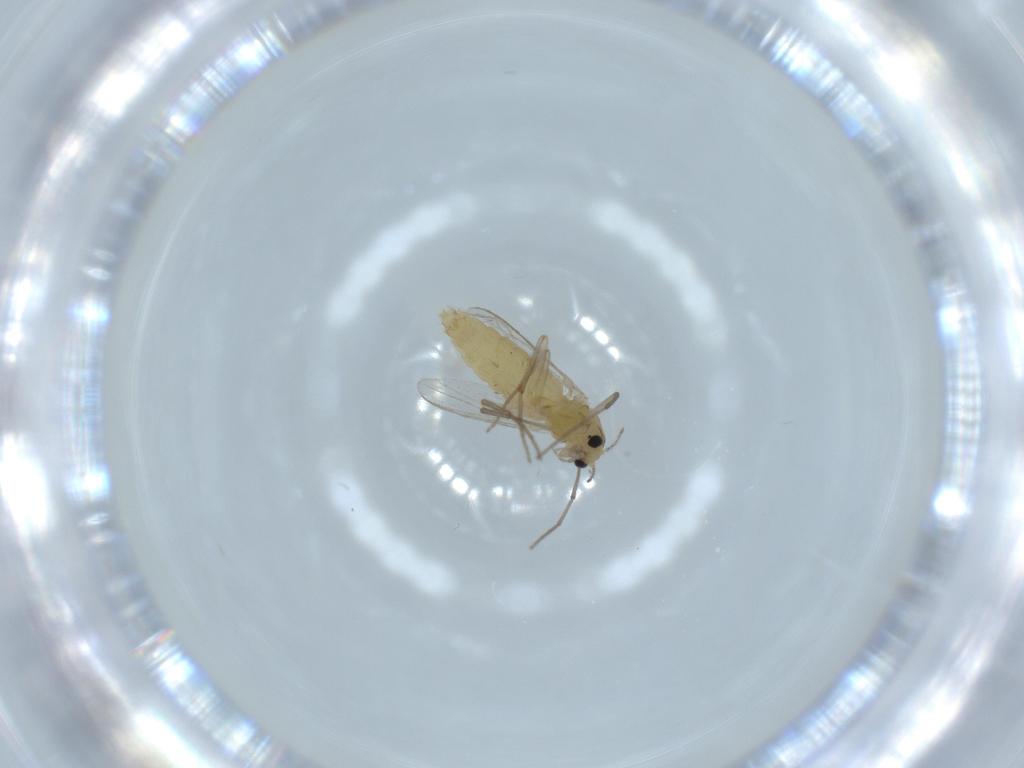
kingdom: Animalia
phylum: Arthropoda
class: Insecta
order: Diptera
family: Chironomidae
